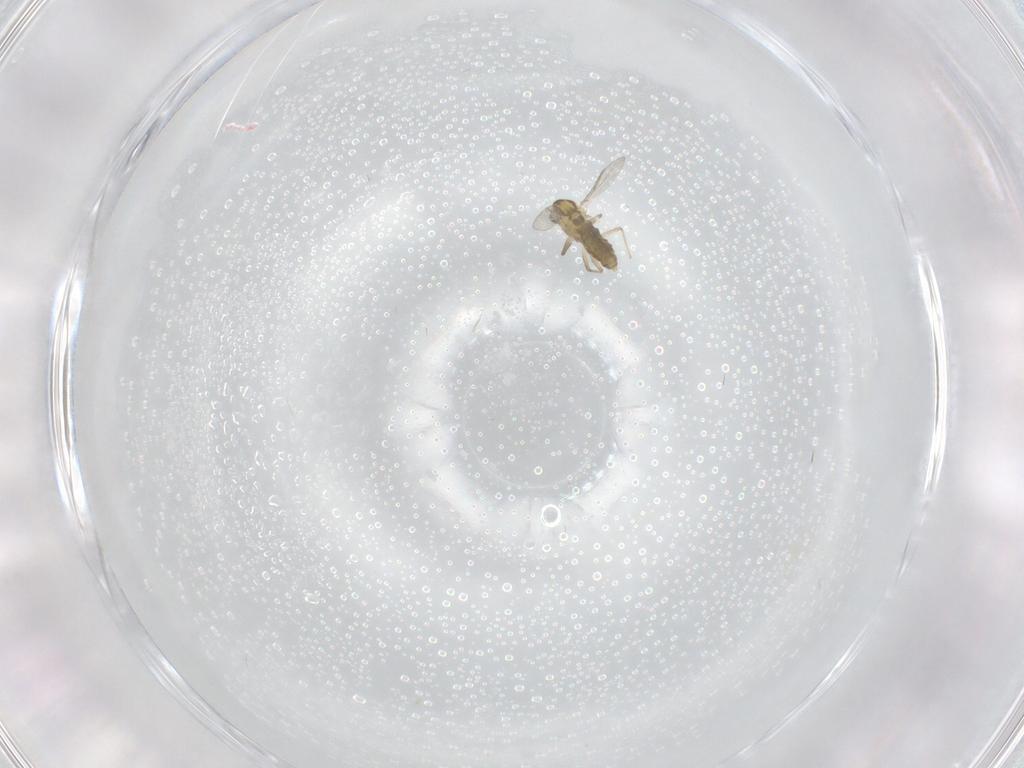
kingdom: Animalia
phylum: Arthropoda
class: Insecta
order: Diptera
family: Chironomidae
